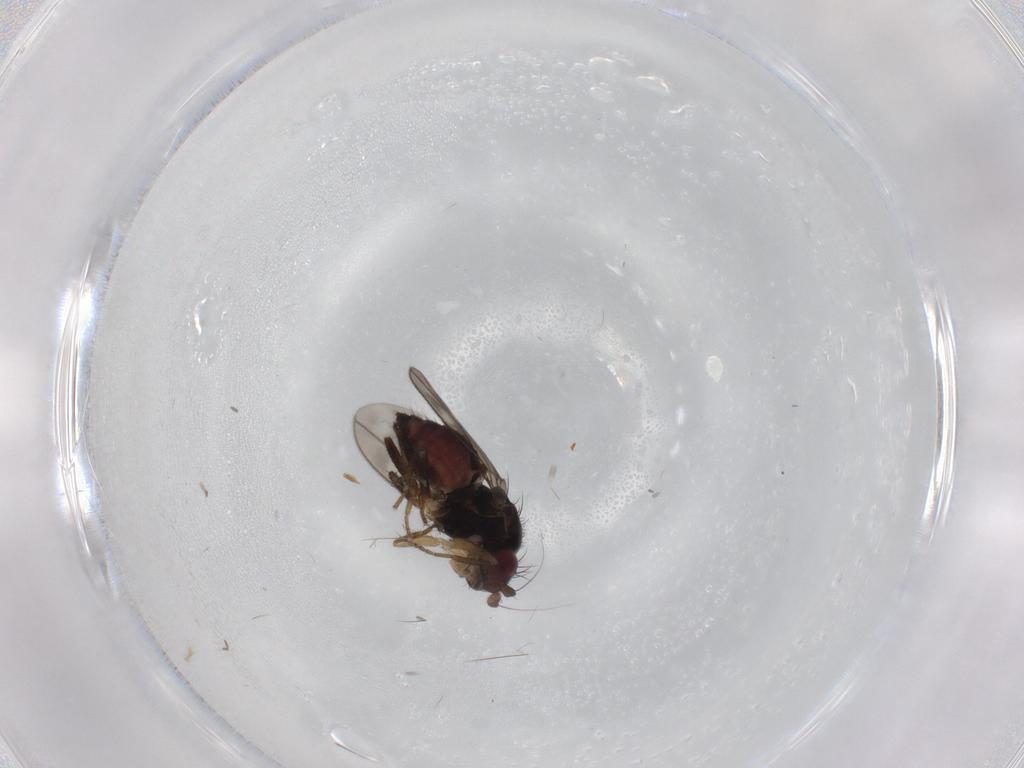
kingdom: Animalia
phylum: Arthropoda
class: Insecta
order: Diptera
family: Sphaeroceridae
